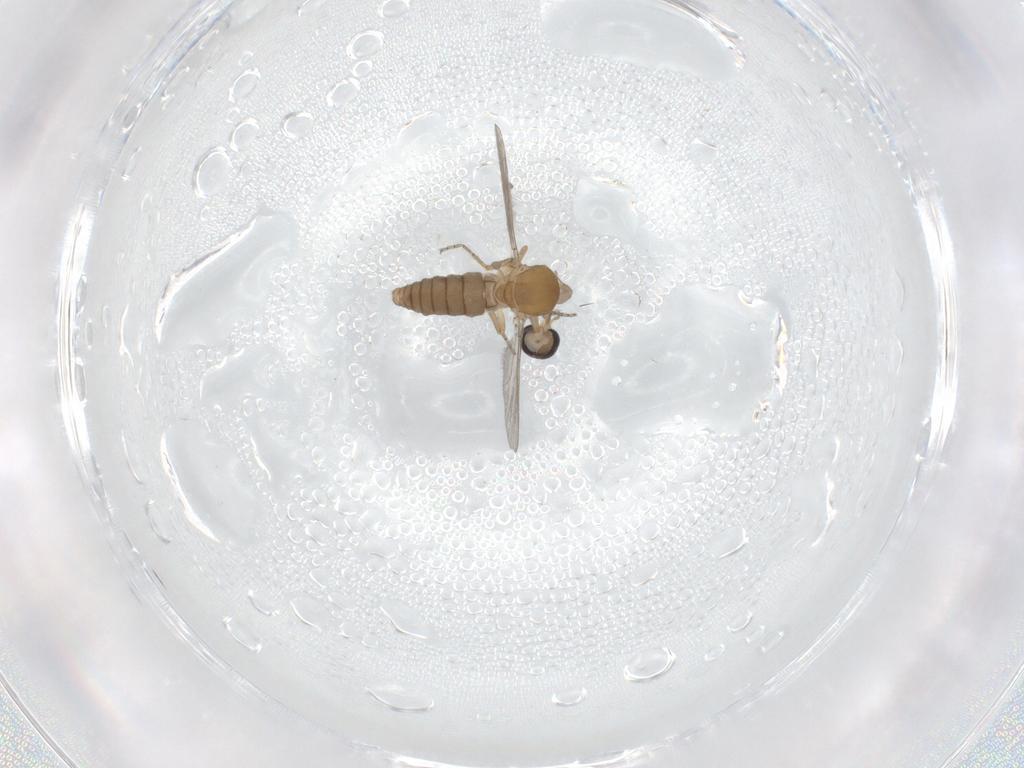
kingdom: Animalia
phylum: Arthropoda
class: Insecta
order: Diptera
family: Ceratopogonidae
